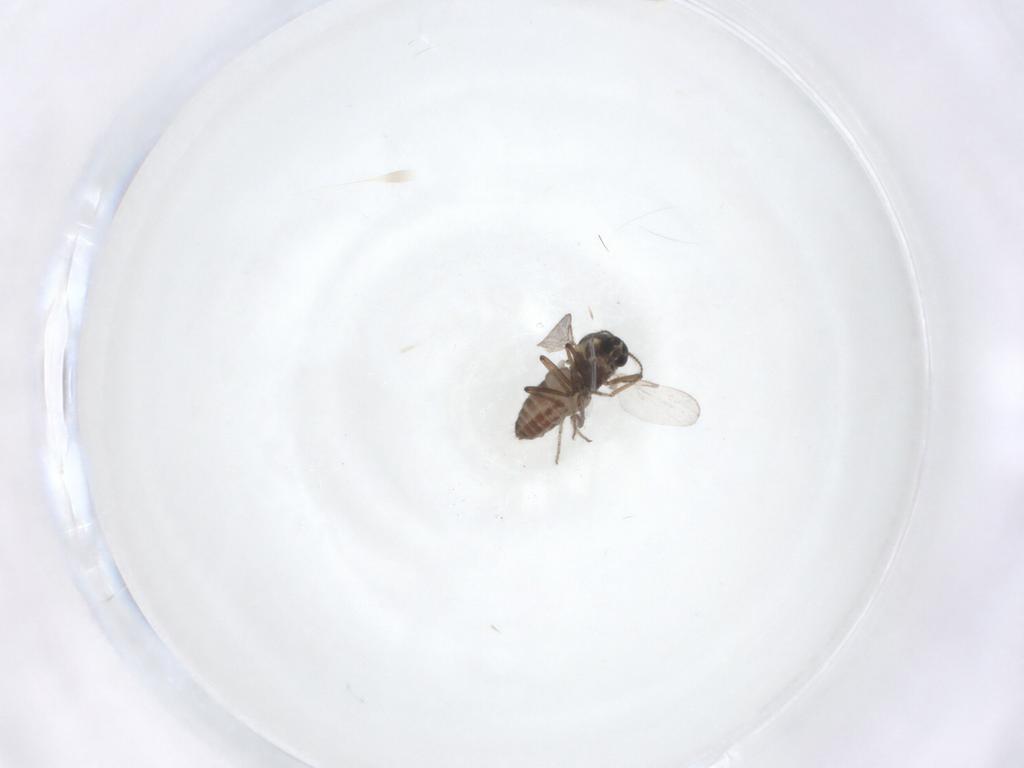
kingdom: Animalia
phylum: Arthropoda
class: Insecta
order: Diptera
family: Ceratopogonidae
